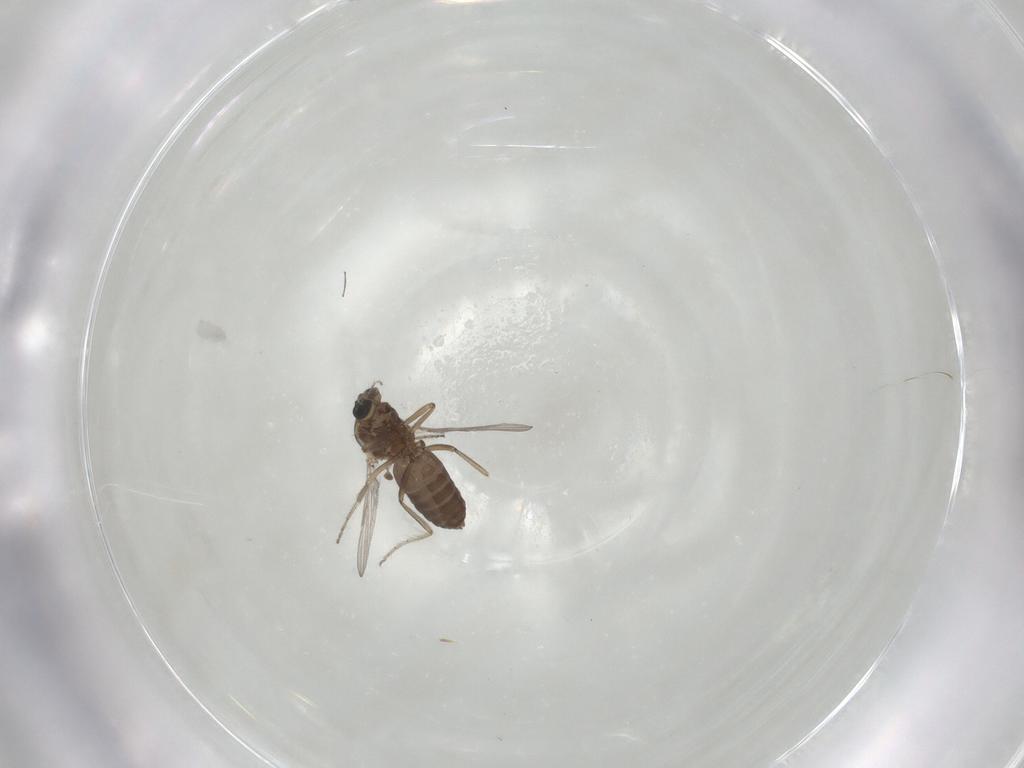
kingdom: Animalia
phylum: Arthropoda
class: Insecta
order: Diptera
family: Ceratopogonidae
